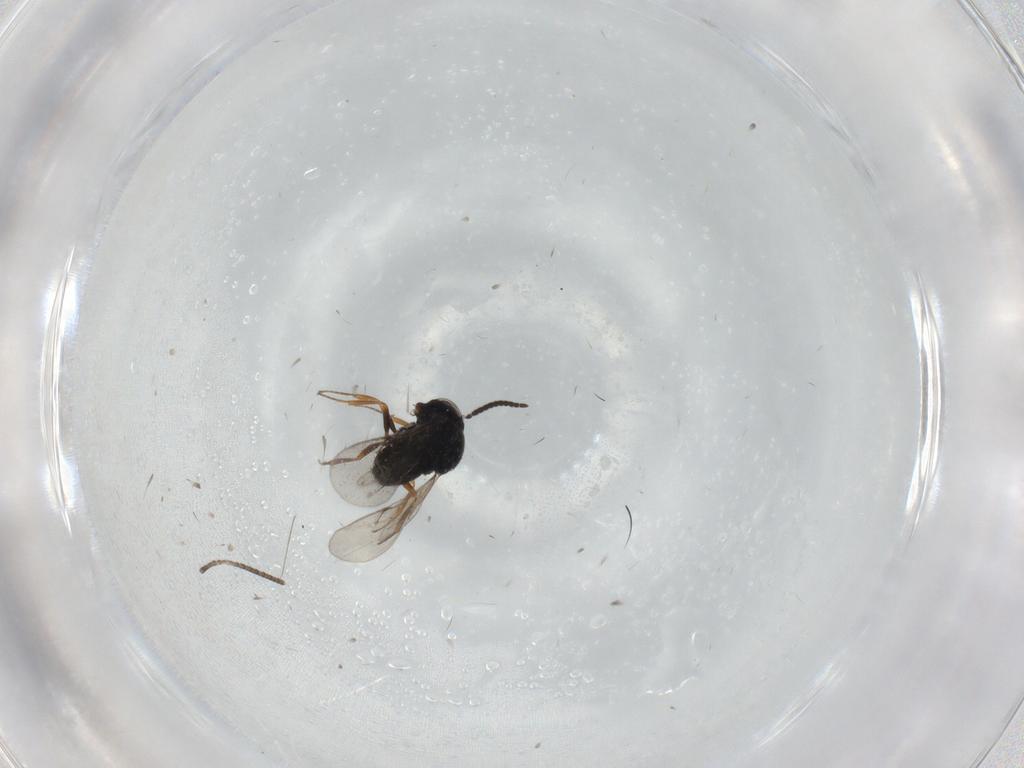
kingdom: Animalia
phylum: Arthropoda
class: Insecta
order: Hymenoptera
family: Scelionidae
